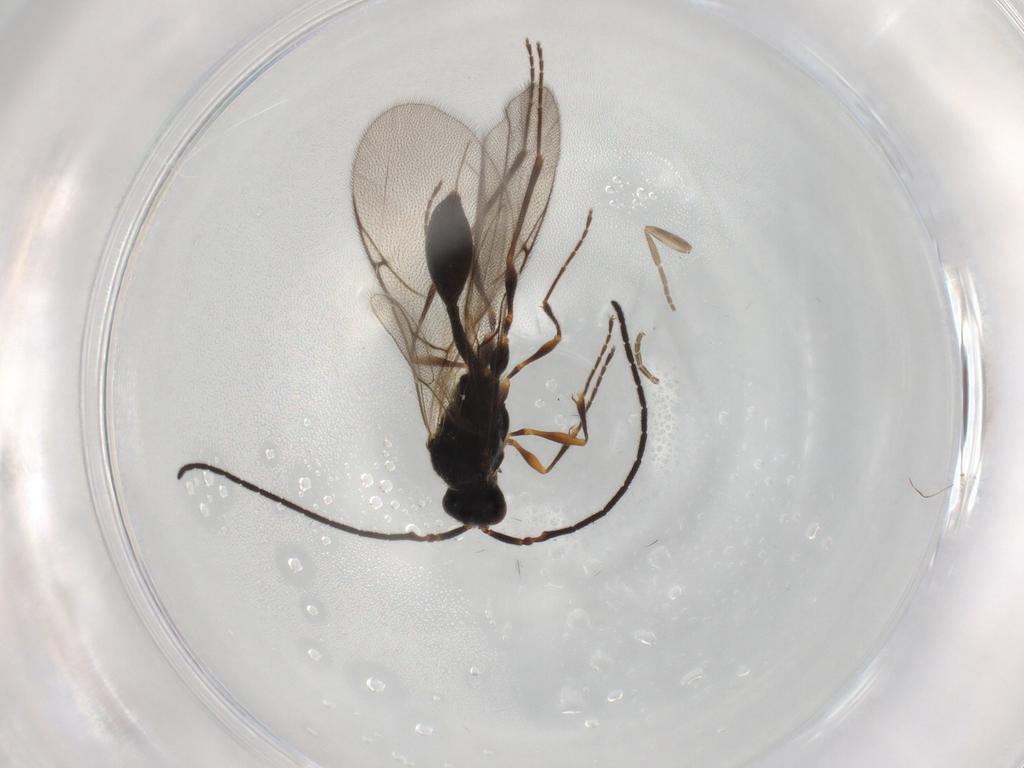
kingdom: Animalia
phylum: Arthropoda
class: Insecta
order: Hymenoptera
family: Diapriidae
